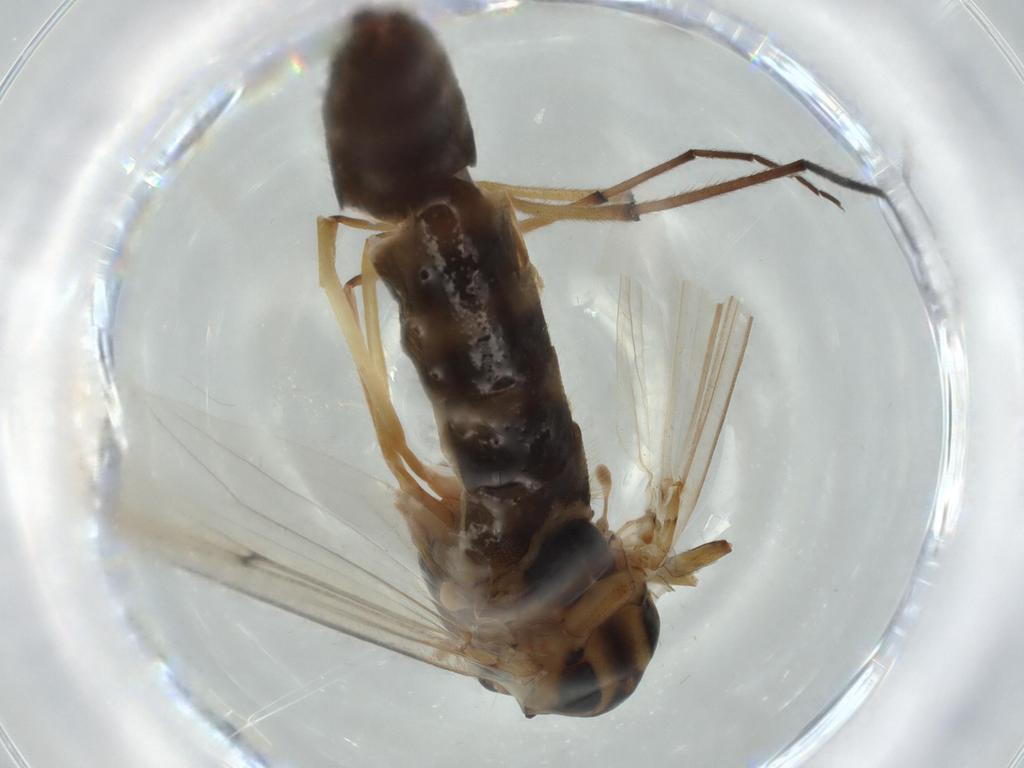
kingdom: Animalia
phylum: Arthropoda
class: Insecta
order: Diptera
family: Chironomidae
